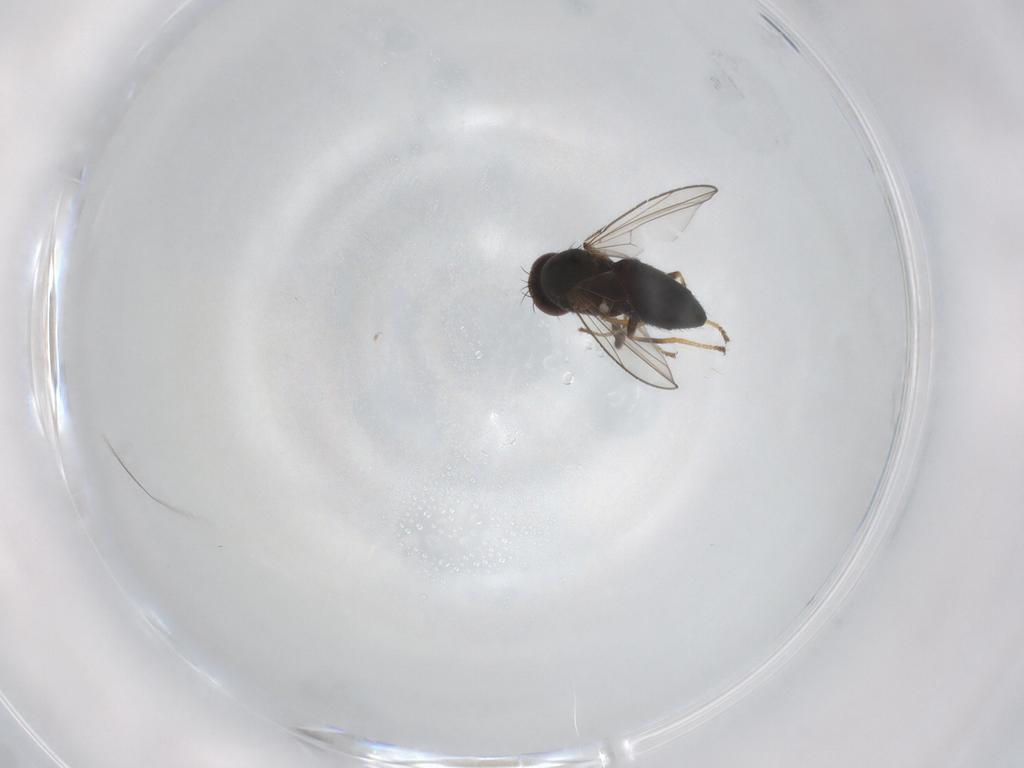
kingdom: Animalia
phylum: Arthropoda
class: Insecta
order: Diptera
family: Ephydridae
